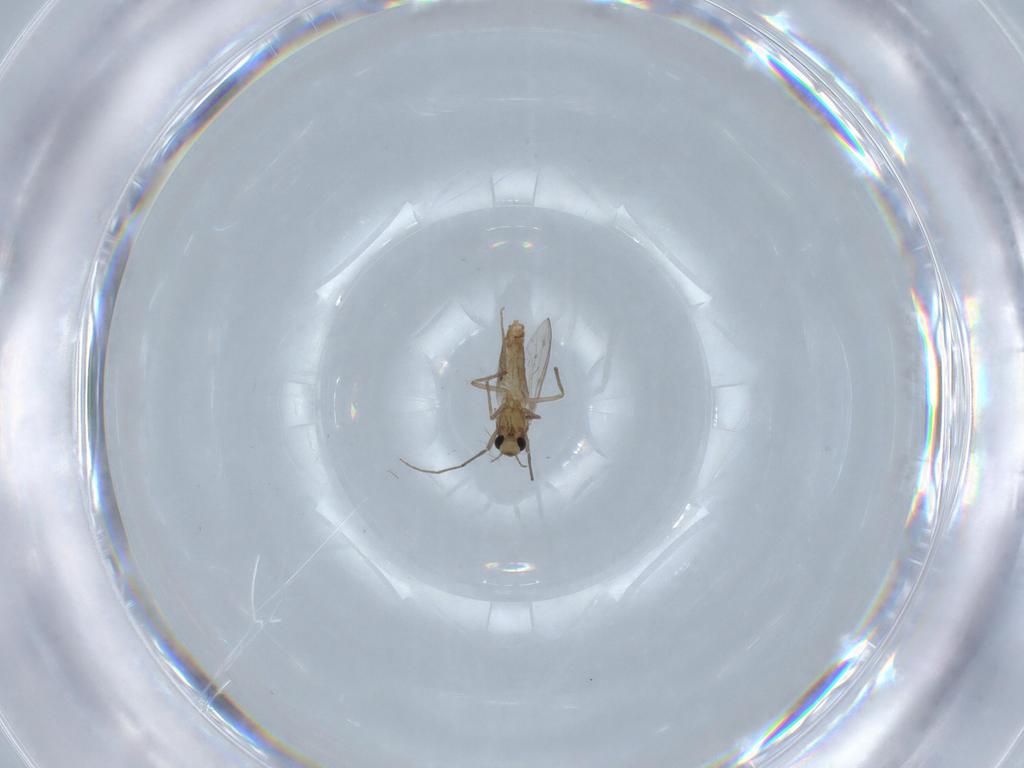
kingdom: Animalia
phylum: Arthropoda
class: Insecta
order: Diptera
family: Chironomidae
